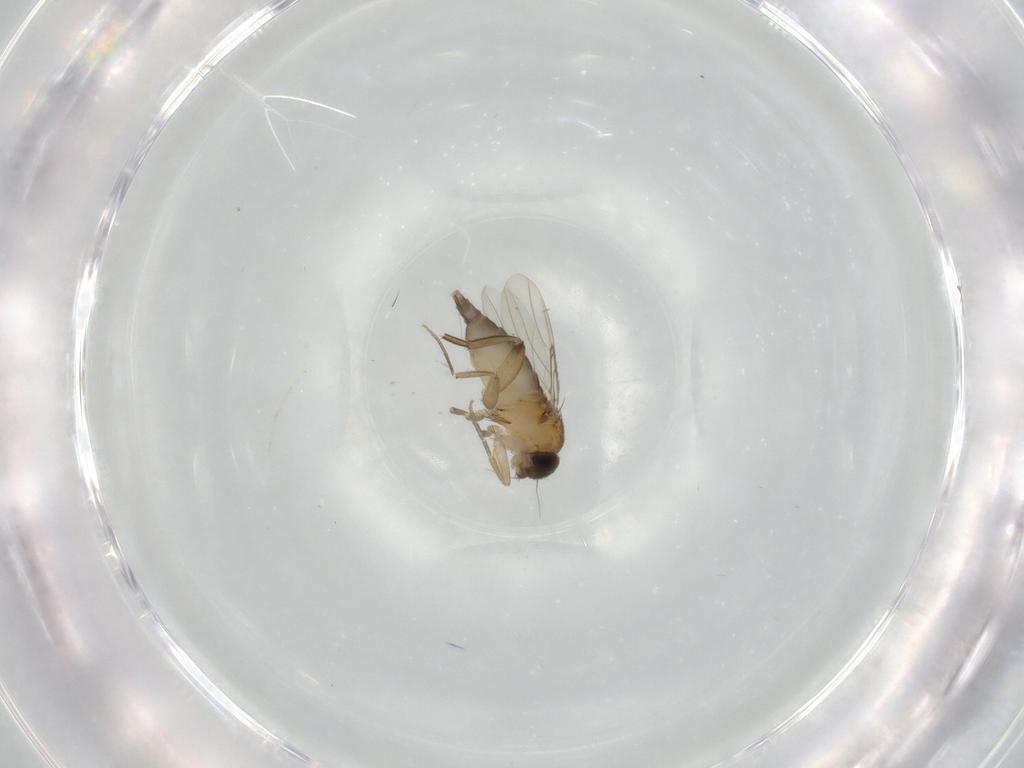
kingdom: Animalia
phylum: Arthropoda
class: Insecta
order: Diptera
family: Phoridae
